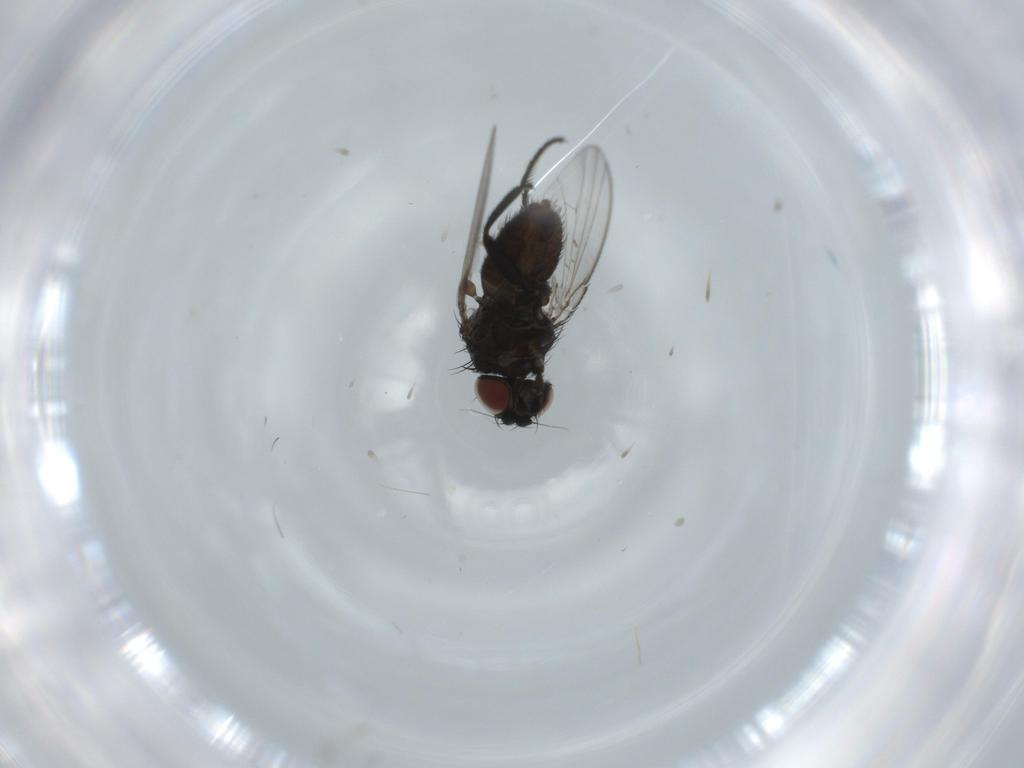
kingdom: Animalia
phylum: Arthropoda
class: Insecta
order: Diptera
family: Milichiidae
